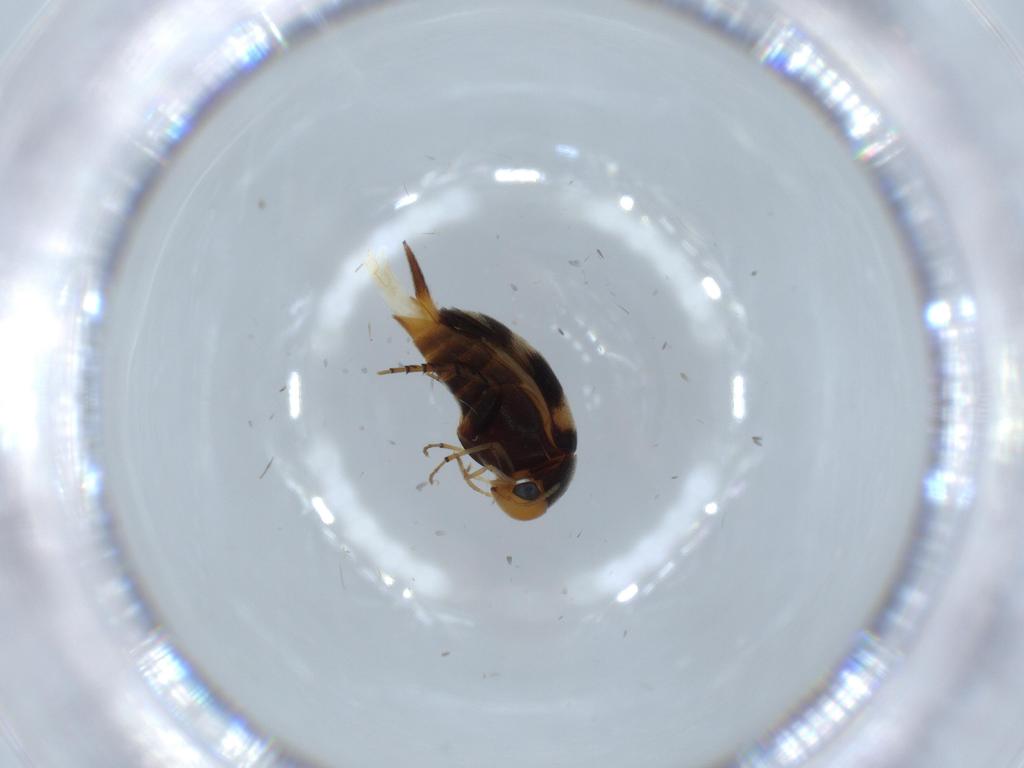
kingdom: Animalia
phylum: Arthropoda
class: Insecta
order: Coleoptera
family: Mordellidae
